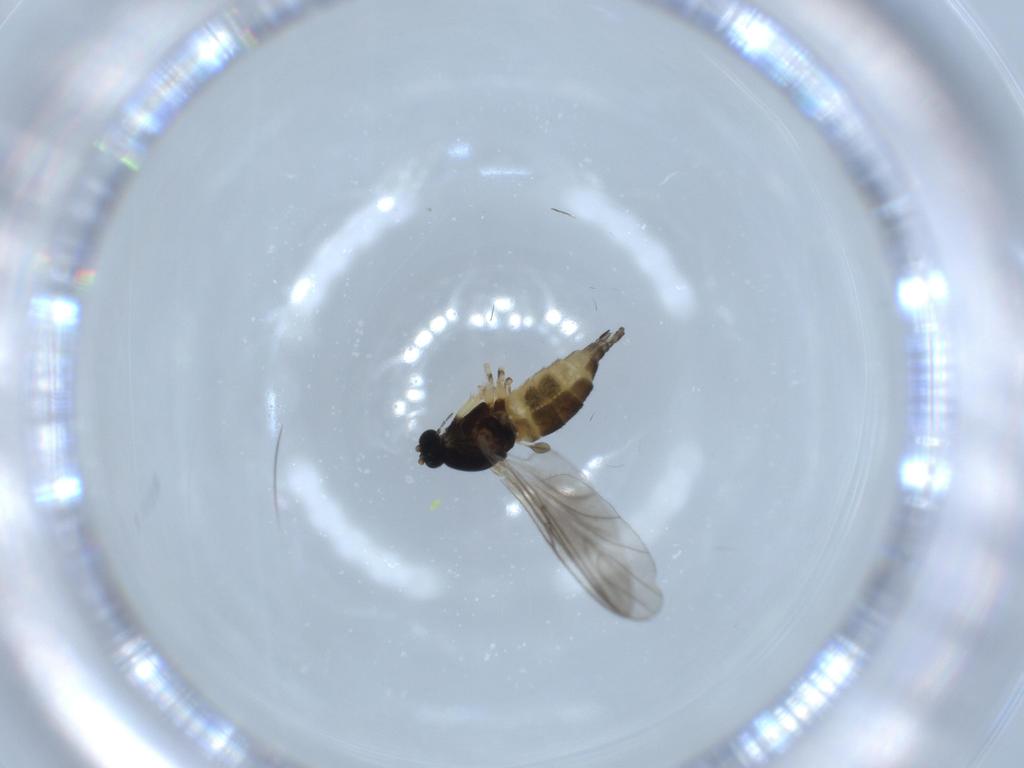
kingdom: Animalia
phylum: Arthropoda
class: Insecta
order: Diptera
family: Sciaridae
